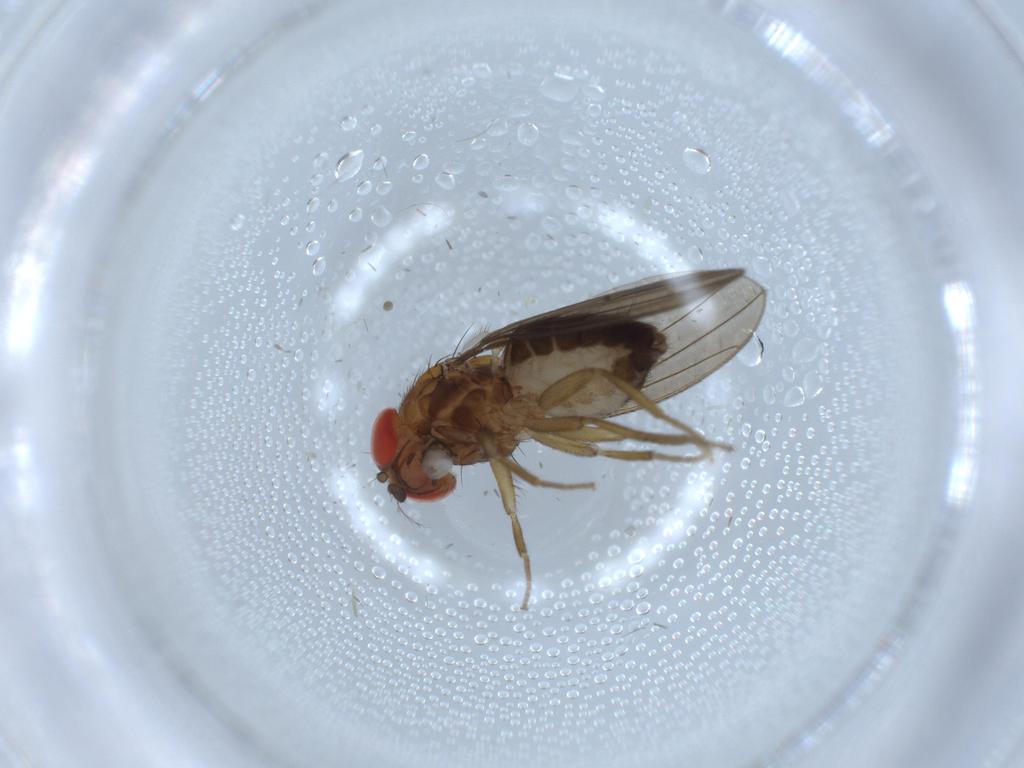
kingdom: Animalia
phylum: Arthropoda
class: Insecta
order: Diptera
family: Drosophilidae
